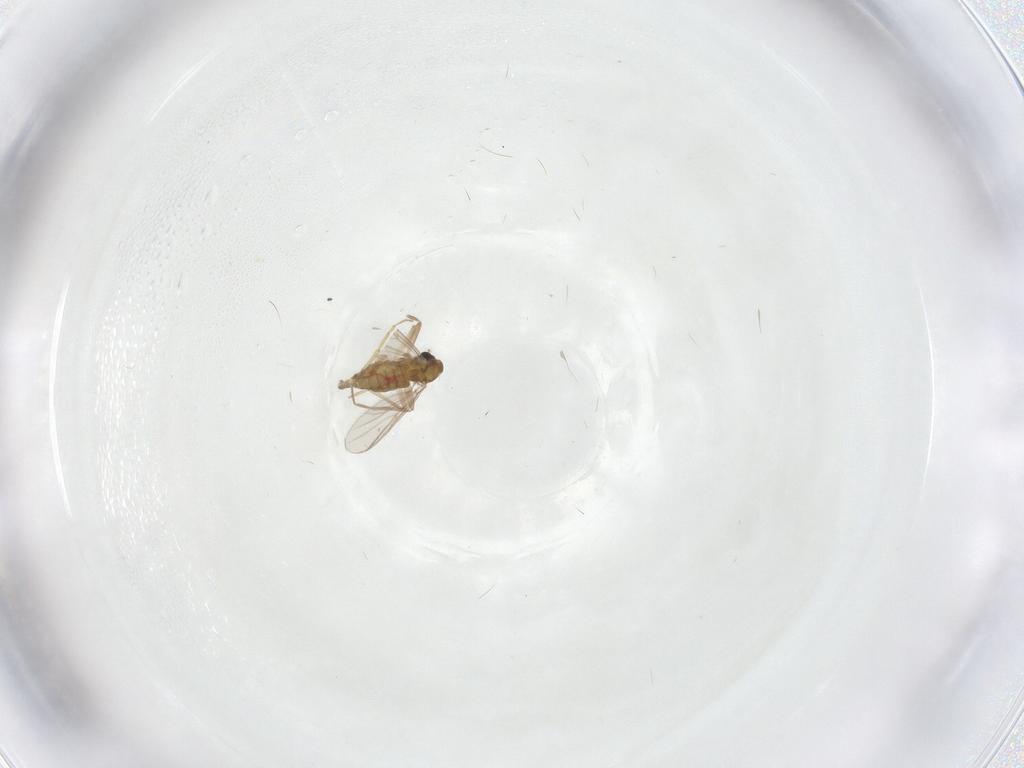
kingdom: Animalia
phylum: Arthropoda
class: Insecta
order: Diptera
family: Chironomidae
